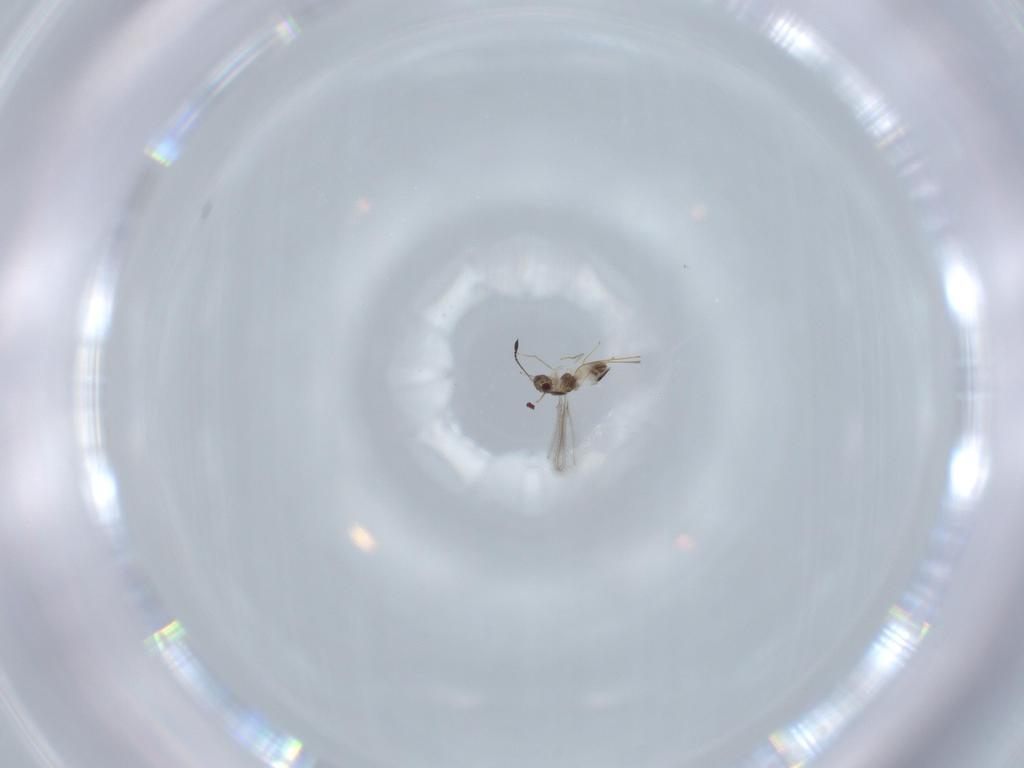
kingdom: Animalia
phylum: Arthropoda
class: Insecta
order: Hymenoptera
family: Mymaridae
